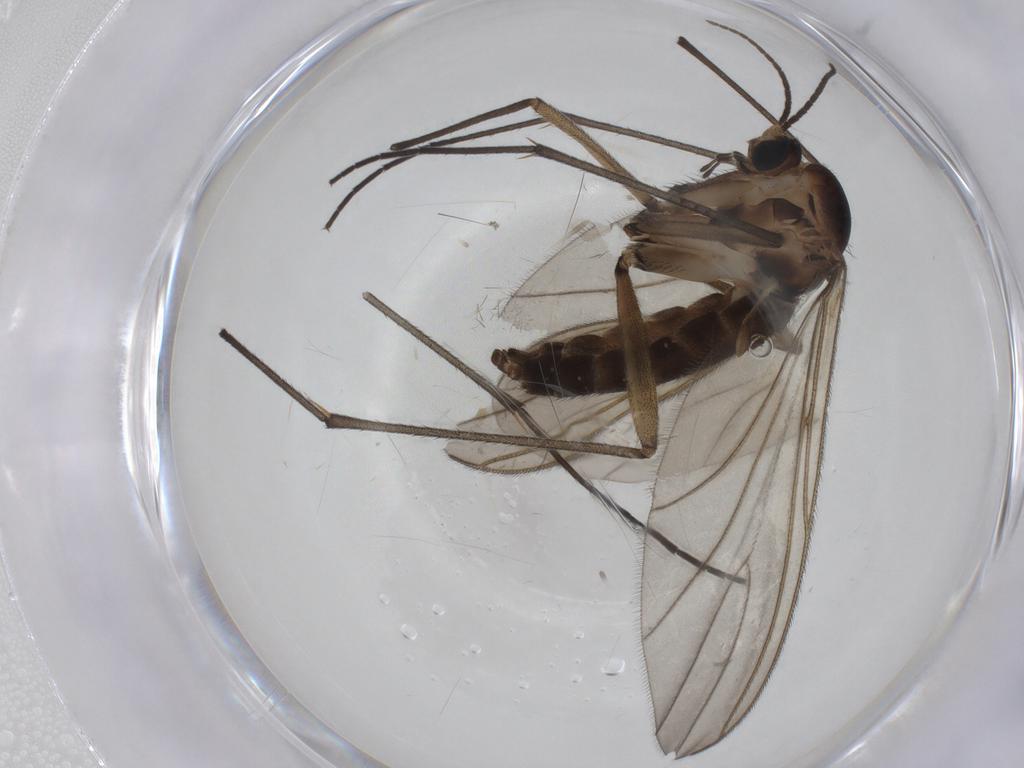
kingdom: Animalia
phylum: Arthropoda
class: Insecta
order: Diptera
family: Sciaridae
